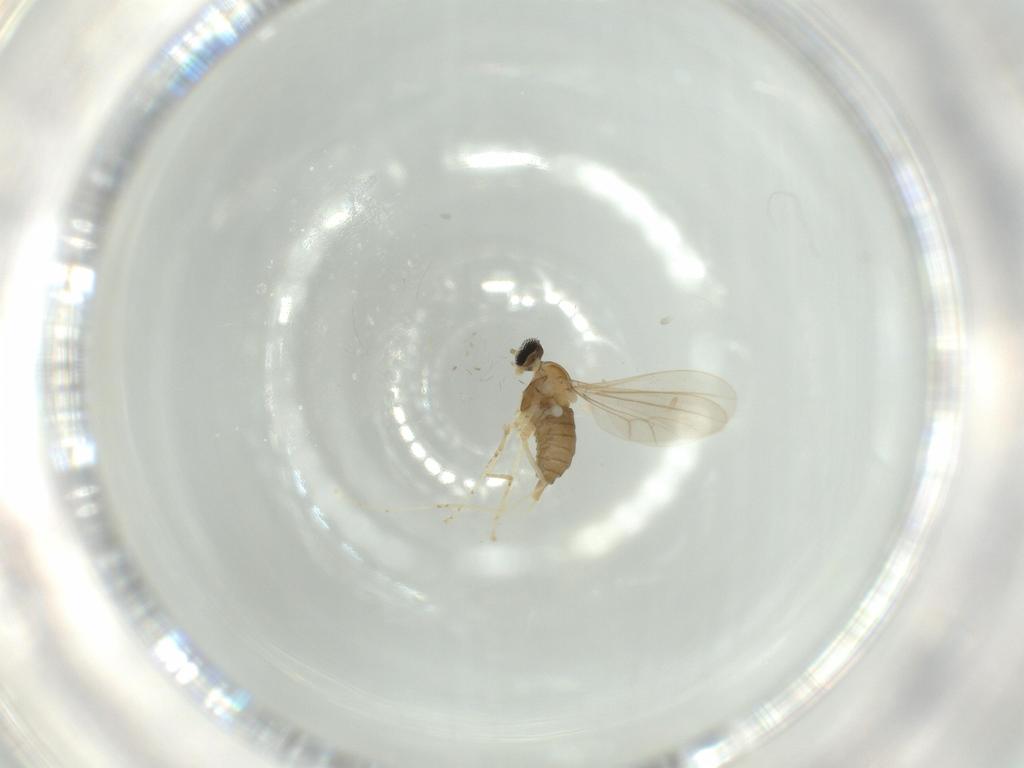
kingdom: Animalia
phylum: Arthropoda
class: Insecta
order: Diptera
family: Cecidomyiidae
